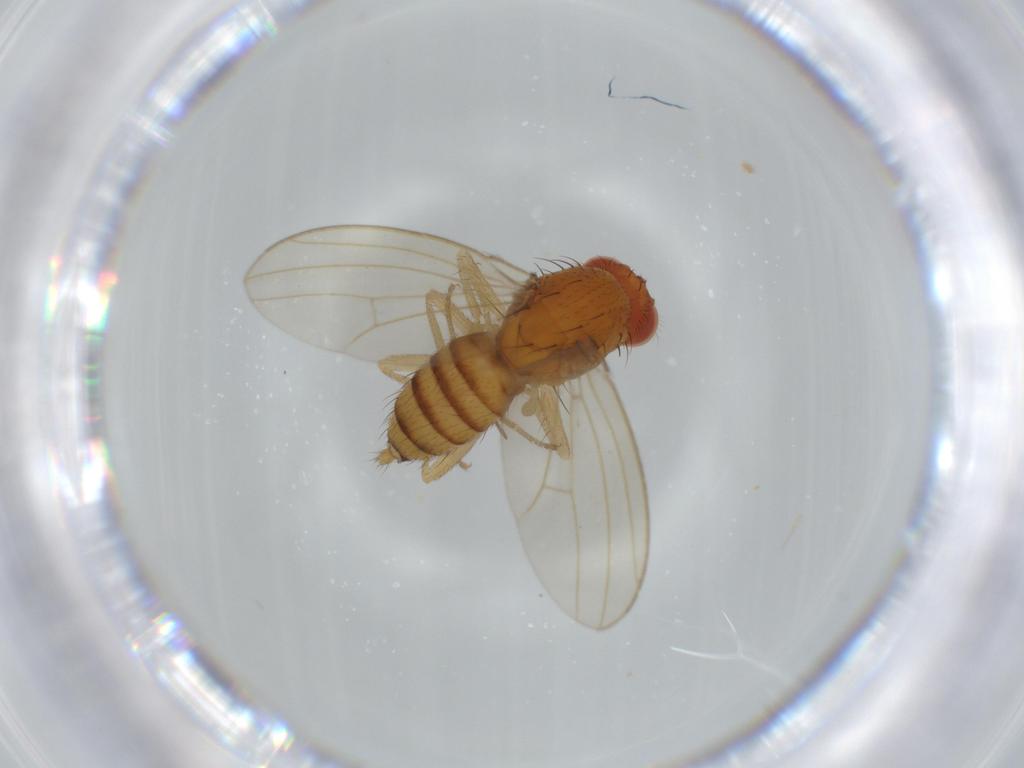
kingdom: Animalia
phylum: Arthropoda
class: Insecta
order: Diptera
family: Drosophilidae
